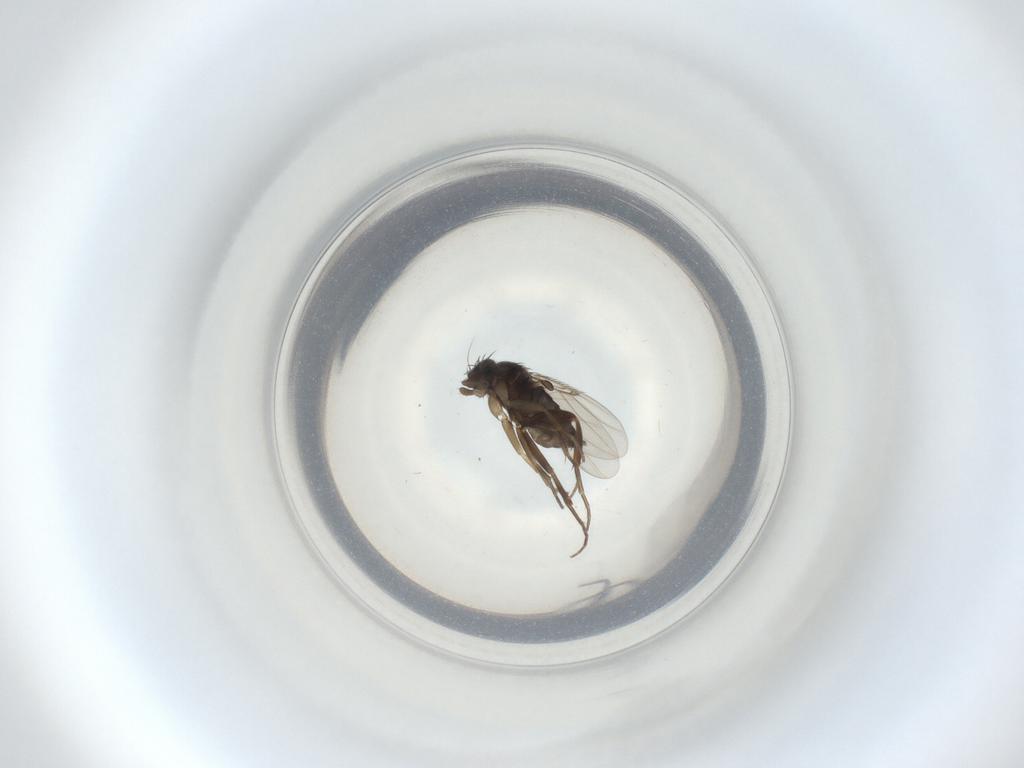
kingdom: Animalia
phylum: Arthropoda
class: Insecta
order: Diptera
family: Phoridae
